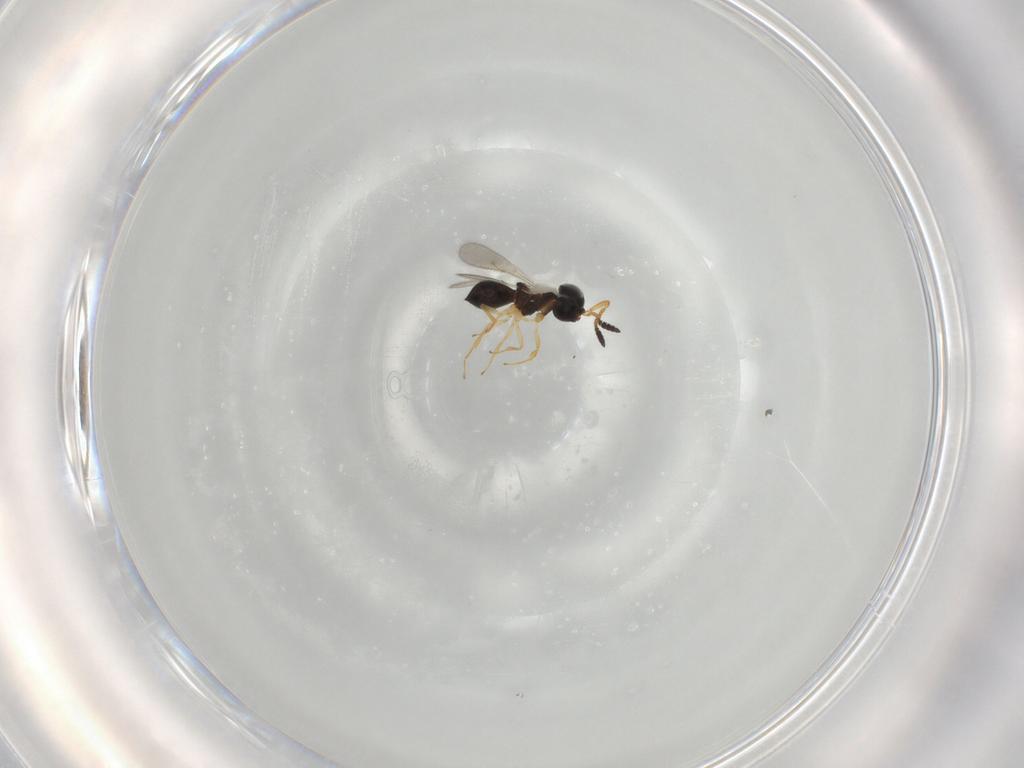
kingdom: Animalia
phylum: Arthropoda
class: Insecta
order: Hymenoptera
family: Scelionidae
